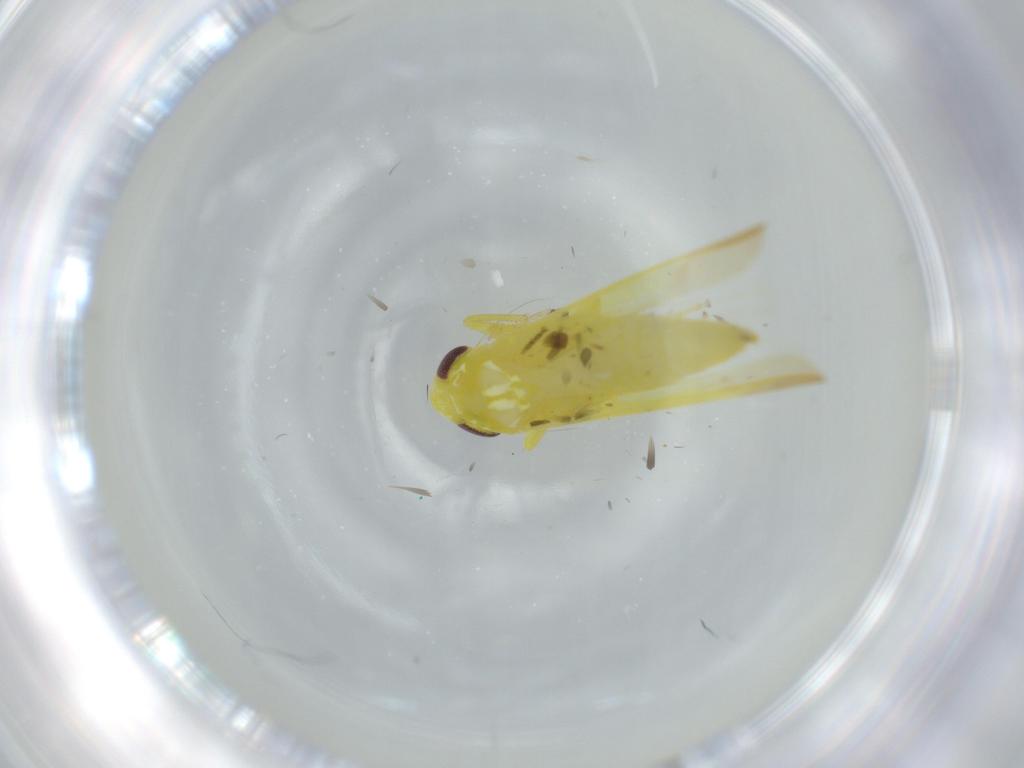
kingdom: Animalia
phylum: Arthropoda
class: Insecta
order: Hemiptera
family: Cicadellidae
